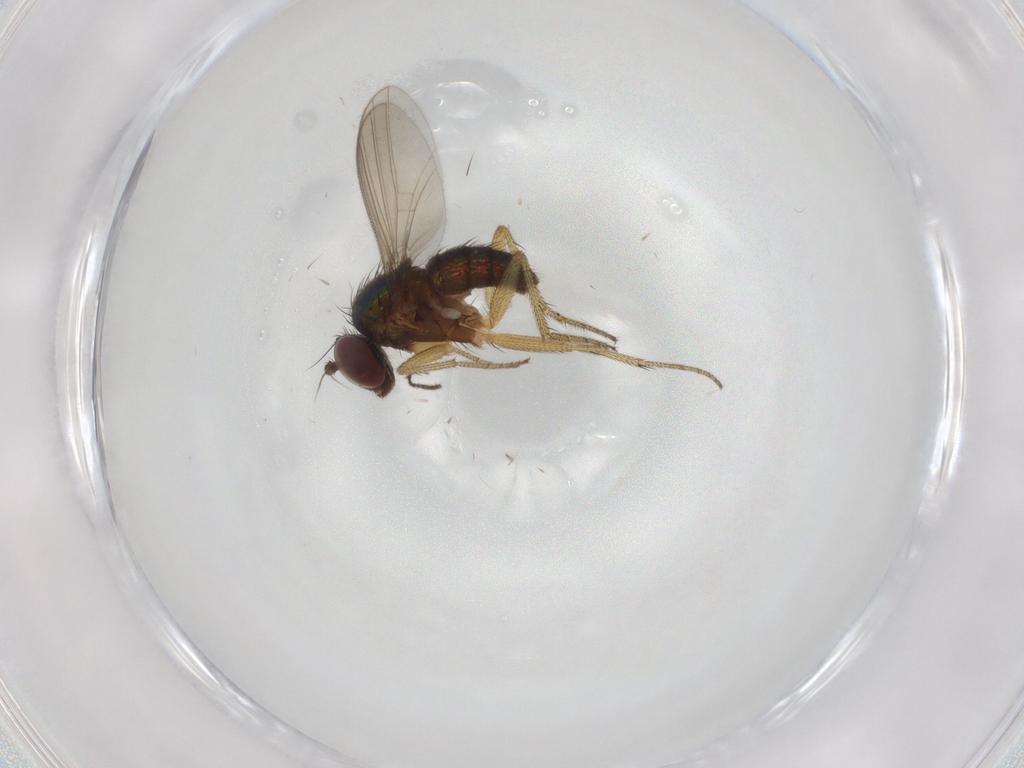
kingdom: Animalia
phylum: Arthropoda
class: Insecta
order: Diptera
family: Dolichopodidae
